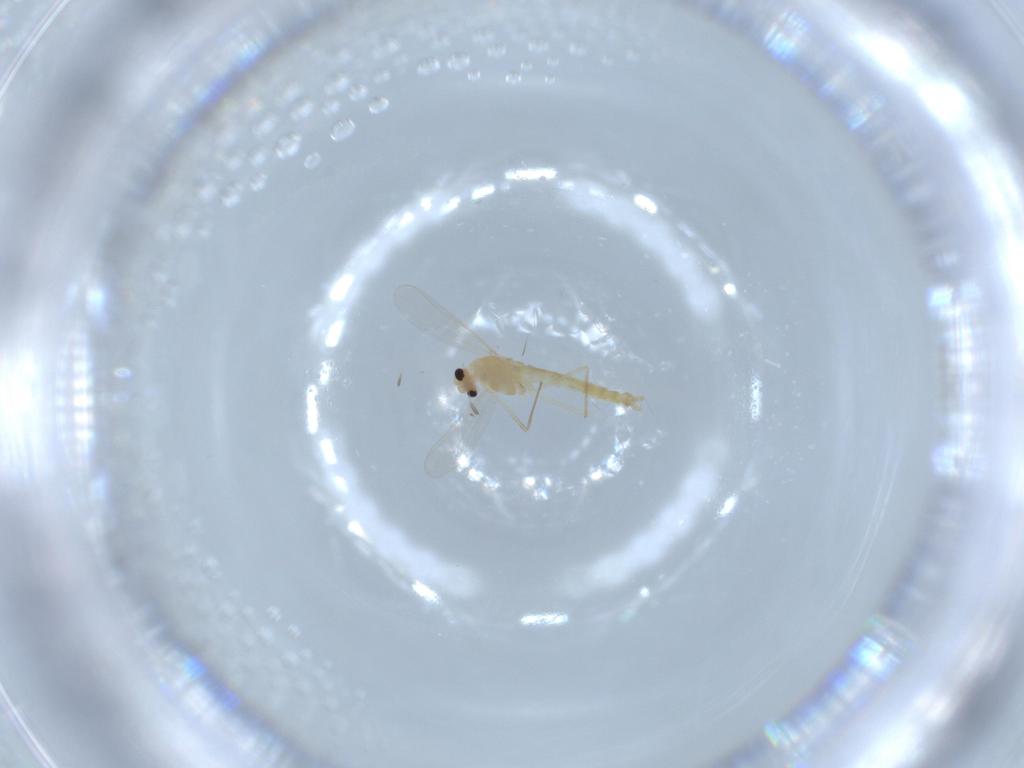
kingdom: Animalia
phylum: Arthropoda
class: Insecta
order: Diptera
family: Chironomidae
